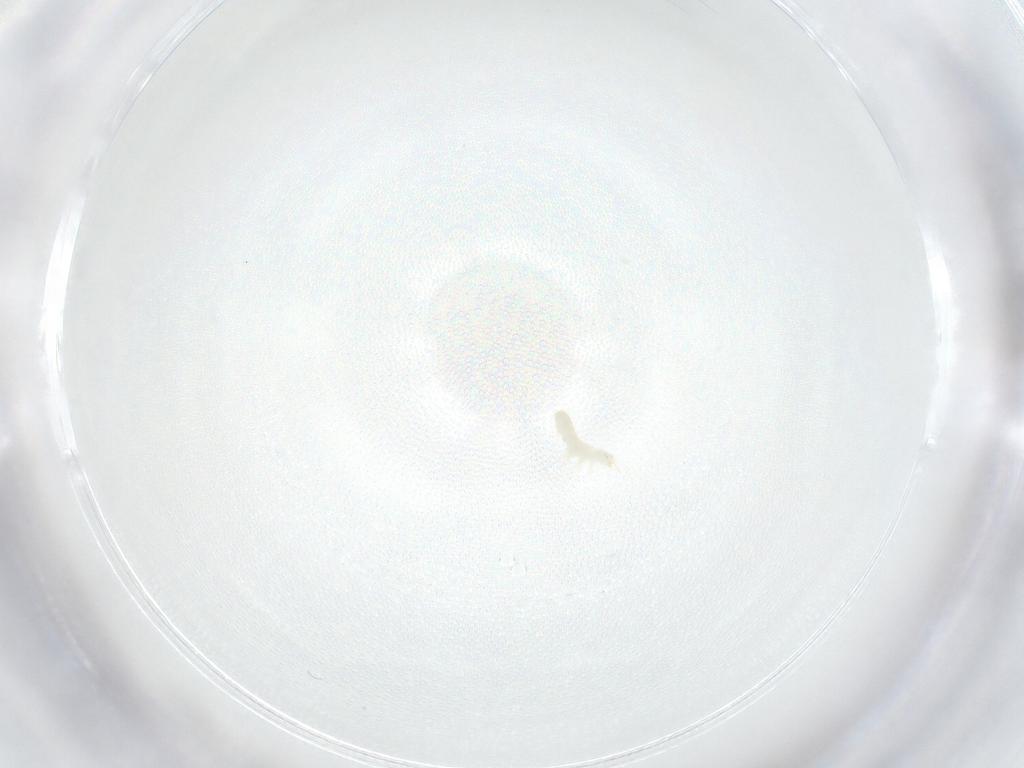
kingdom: Animalia
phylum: Arthropoda
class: Collembola
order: Entomobryomorpha
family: Isotomidae
